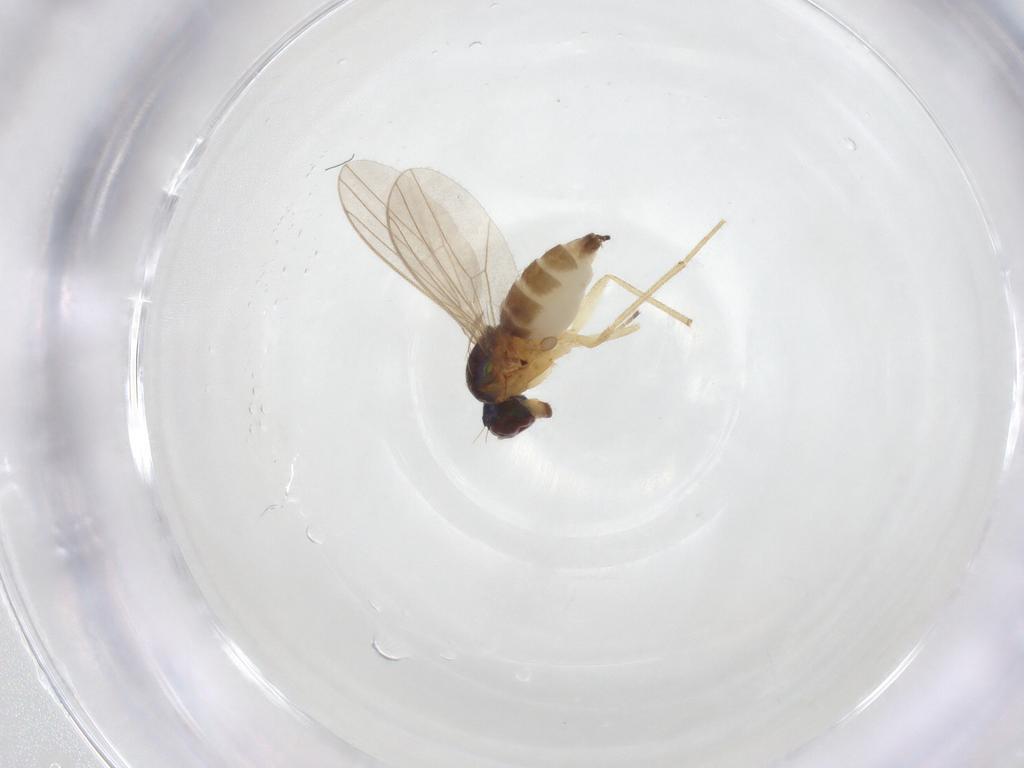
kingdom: Animalia
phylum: Arthropoda
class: Insecta
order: Diptera
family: Dolichopodidae
